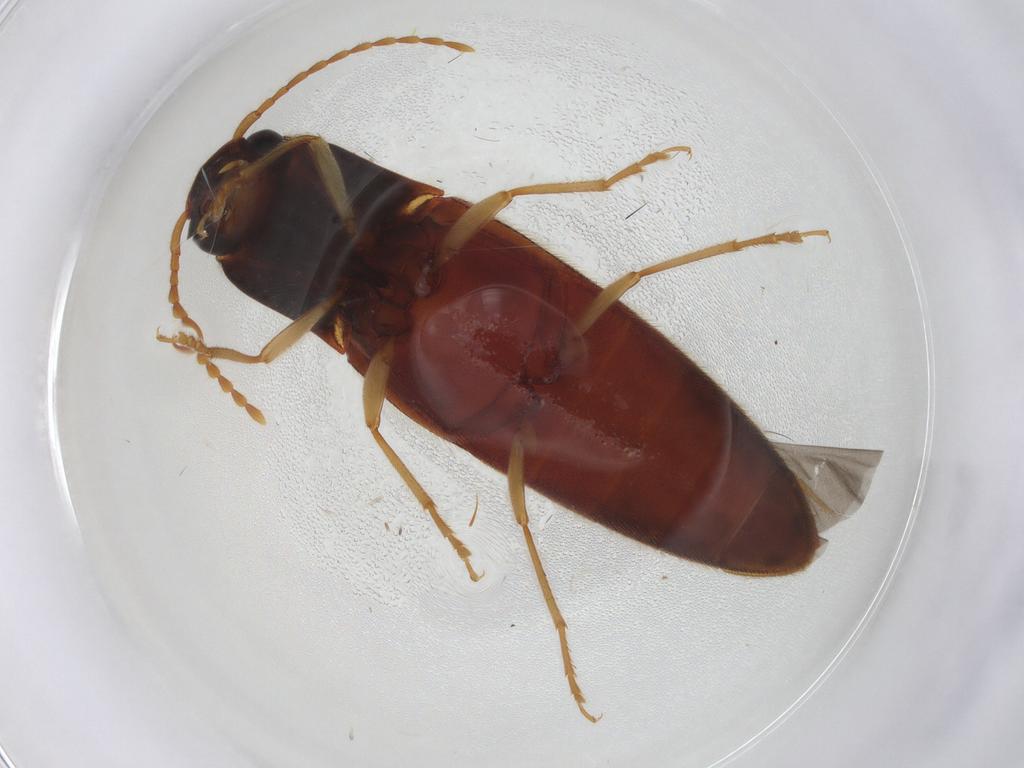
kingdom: Animalia
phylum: Arthropoda
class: Insecta
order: Coleoptera
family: Elateridae
